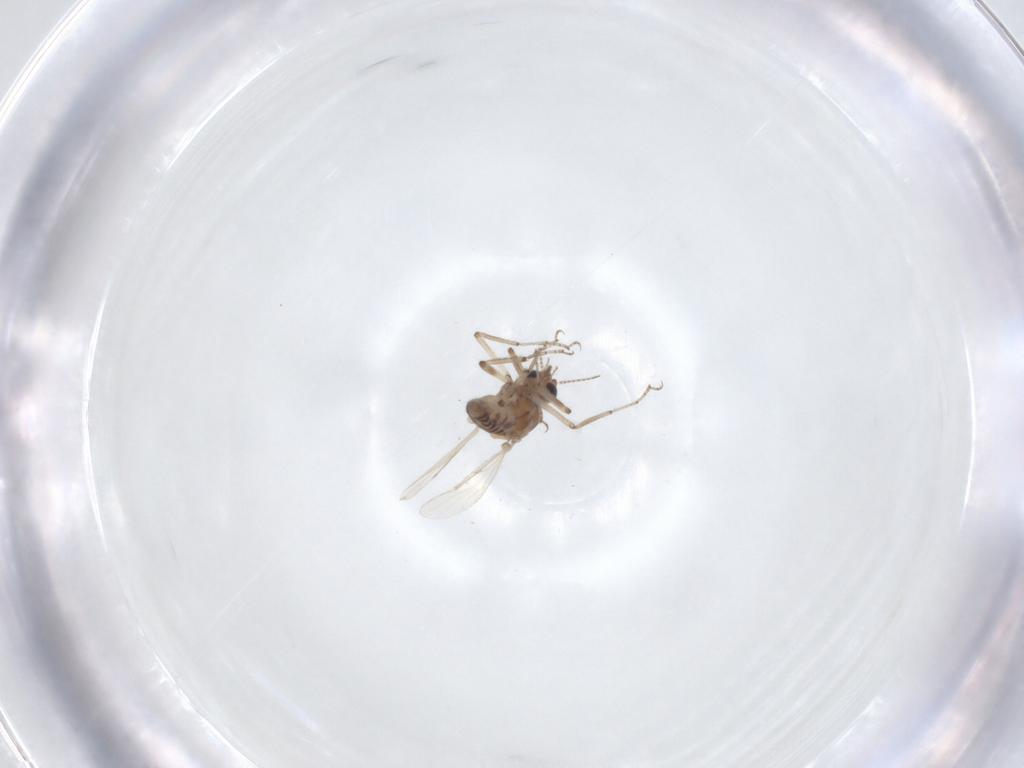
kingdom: Animalia
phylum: Arthropoda
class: Insecta
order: Diptera
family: Ceratopogonidae
